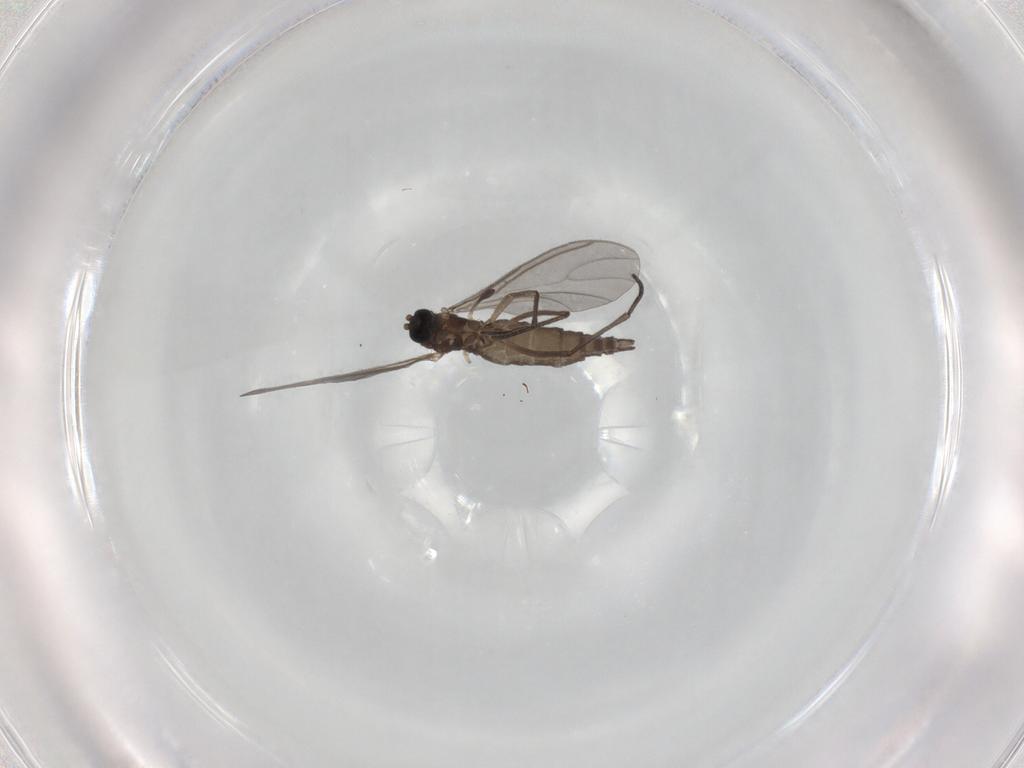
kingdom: Animalia
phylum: Arthropoda
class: Insecta
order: Diptera
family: Sciaridae
